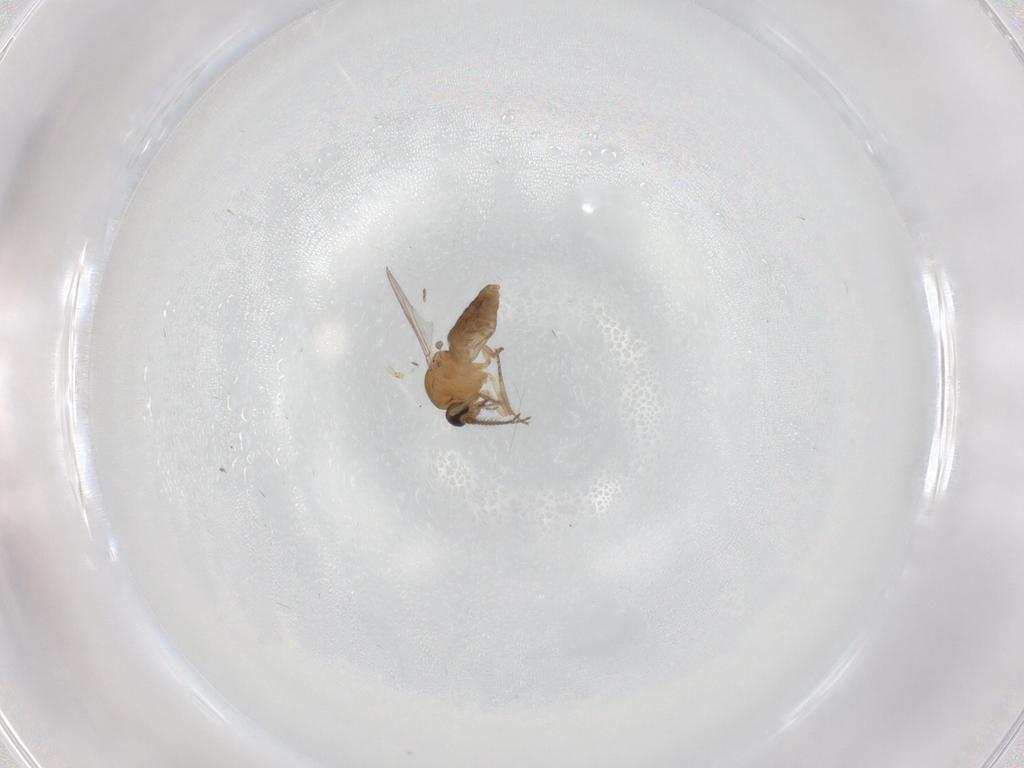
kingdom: Animalia
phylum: Arthropoda
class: Insecta
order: Diptera
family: Ceratopogonidae
